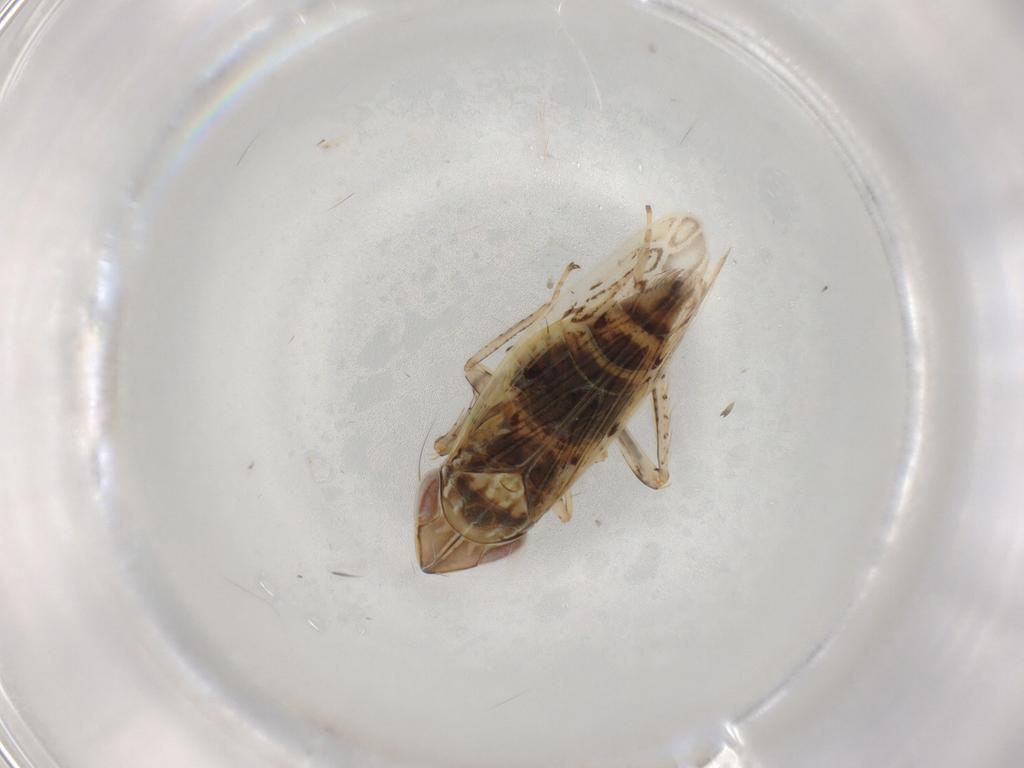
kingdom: Animalia
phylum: Arthropoda
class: Insecta
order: Hemiptera
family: Cicadellidae
